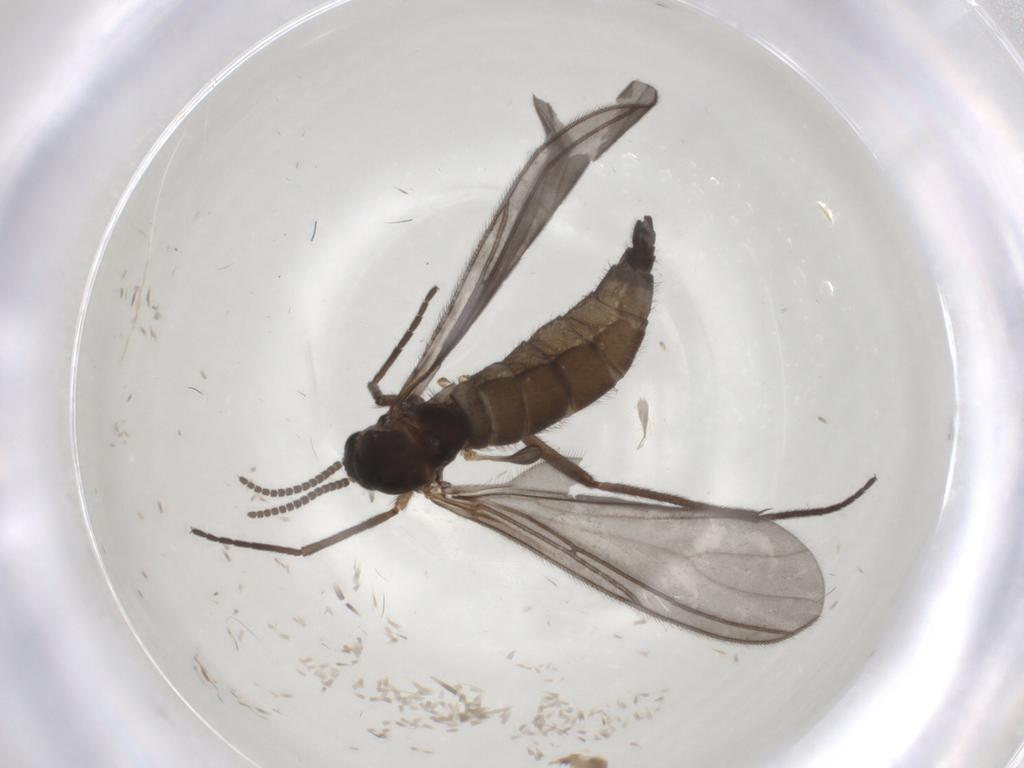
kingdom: Animalia
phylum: Arthropoda
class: Insecta
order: Diptera
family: Sciaridae
